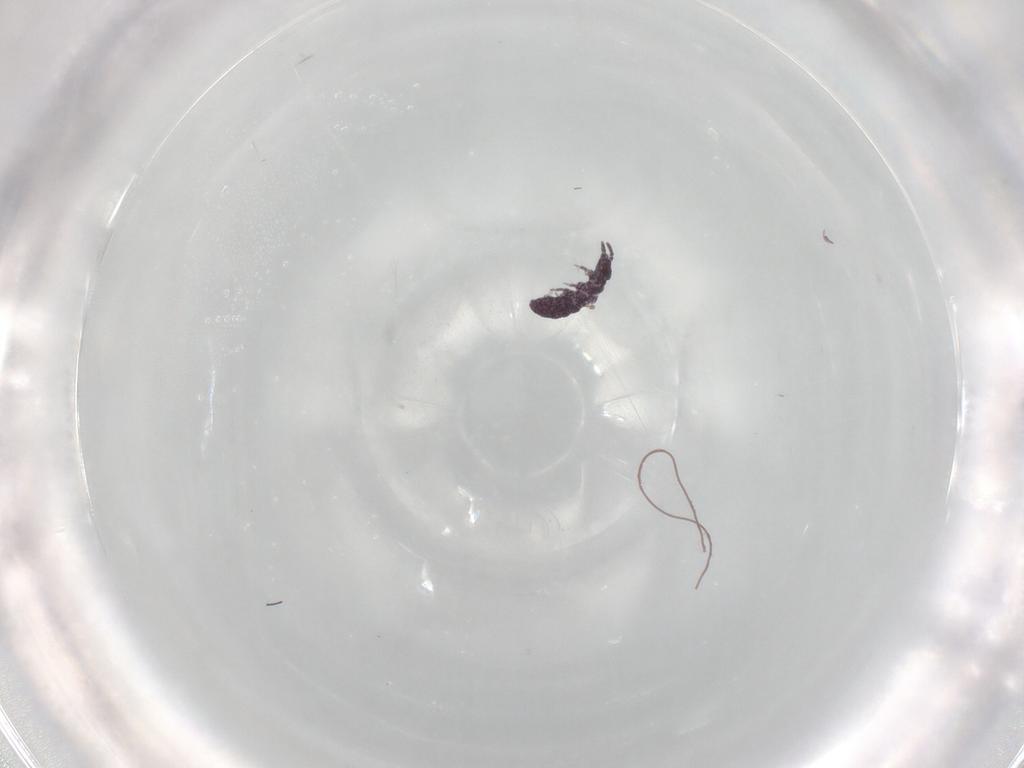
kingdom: Animalia
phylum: Arthropoda
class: Collembola
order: Poduromorpha
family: Brachystomellidae
